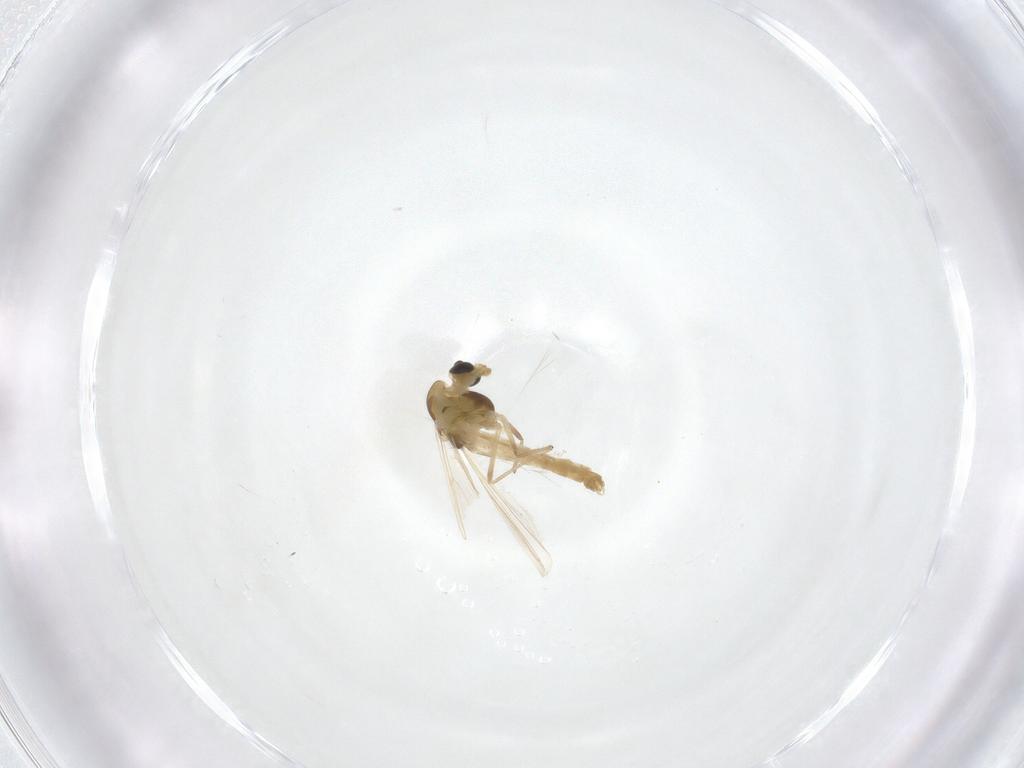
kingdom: Animalia
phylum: Arthropoda
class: Insecta
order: Diptera
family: Chironomidae
